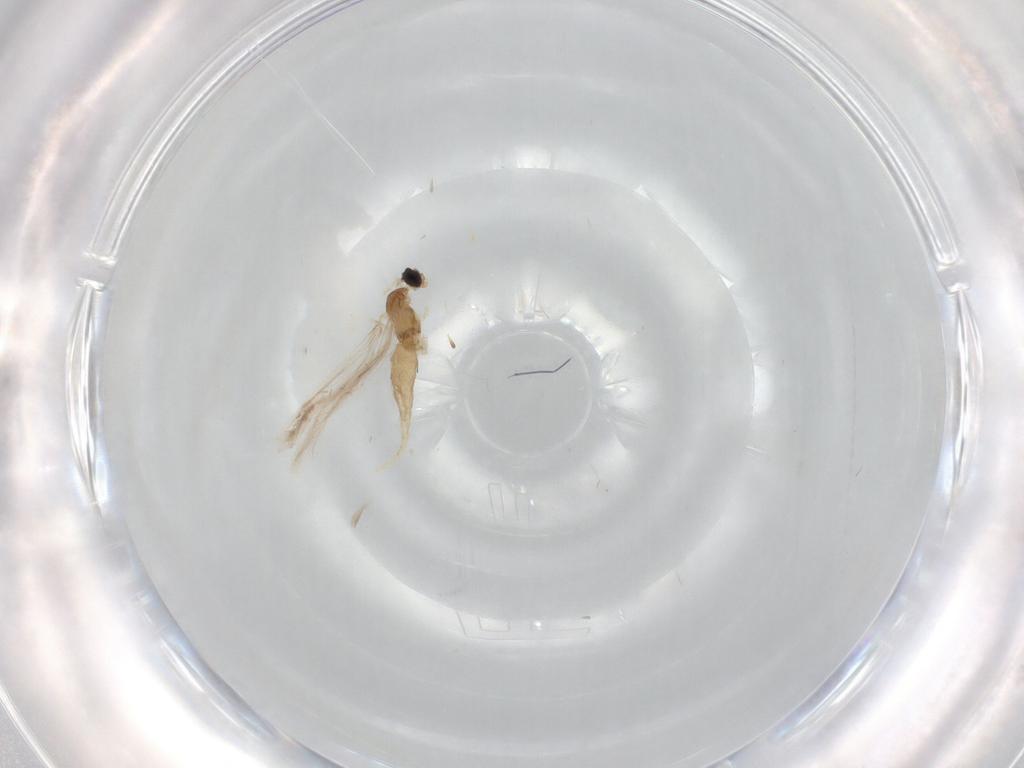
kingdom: Animalia
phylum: Arthropoda
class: Insecta
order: Diptera
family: Cecidomyiidae
